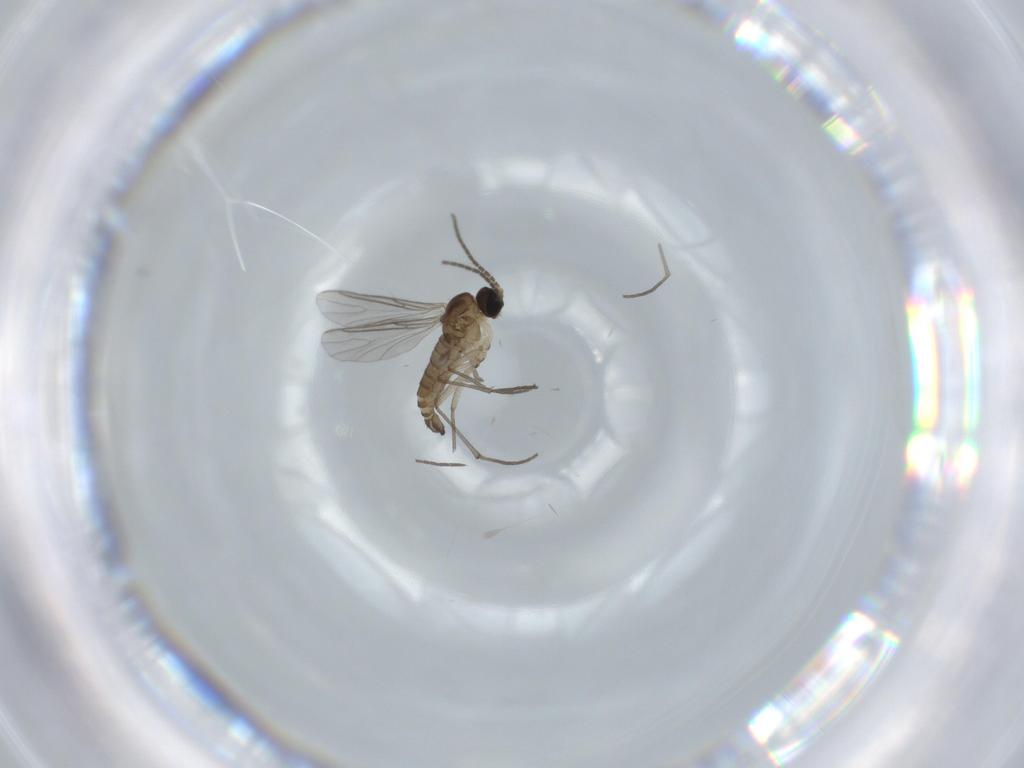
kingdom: Animalia
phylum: Arthropoda
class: Insecta
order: Diptera
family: Sciaridae
